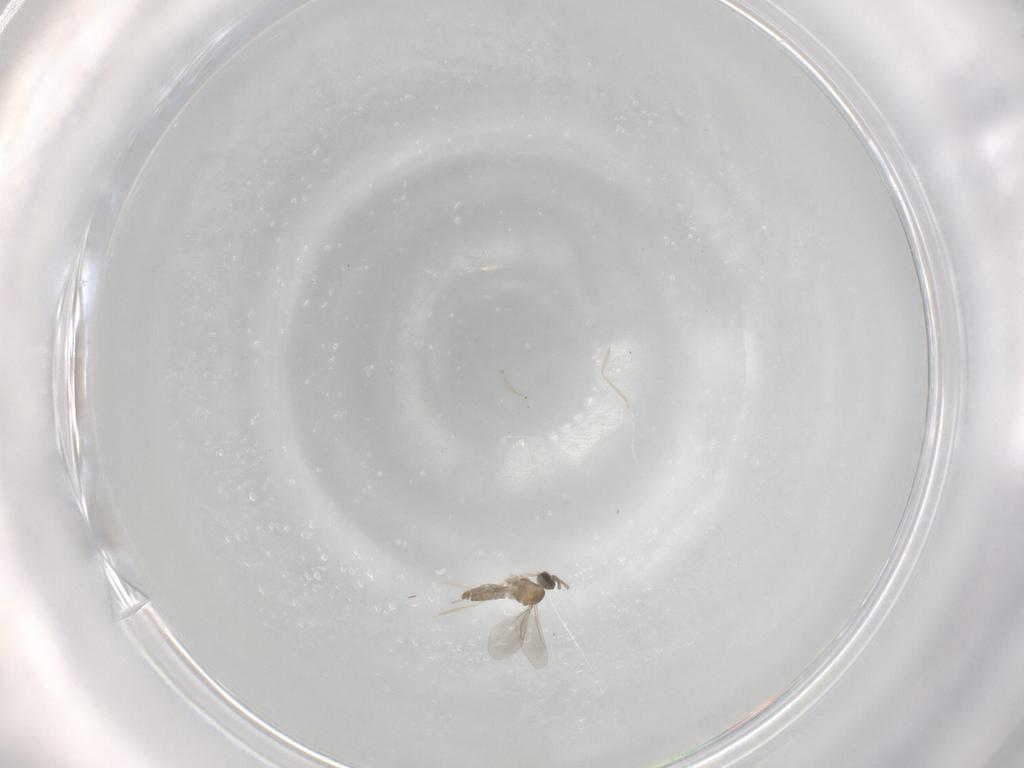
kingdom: Animalia
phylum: Arthropoda
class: Insecta
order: Diptera
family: Cecidomyiidae
